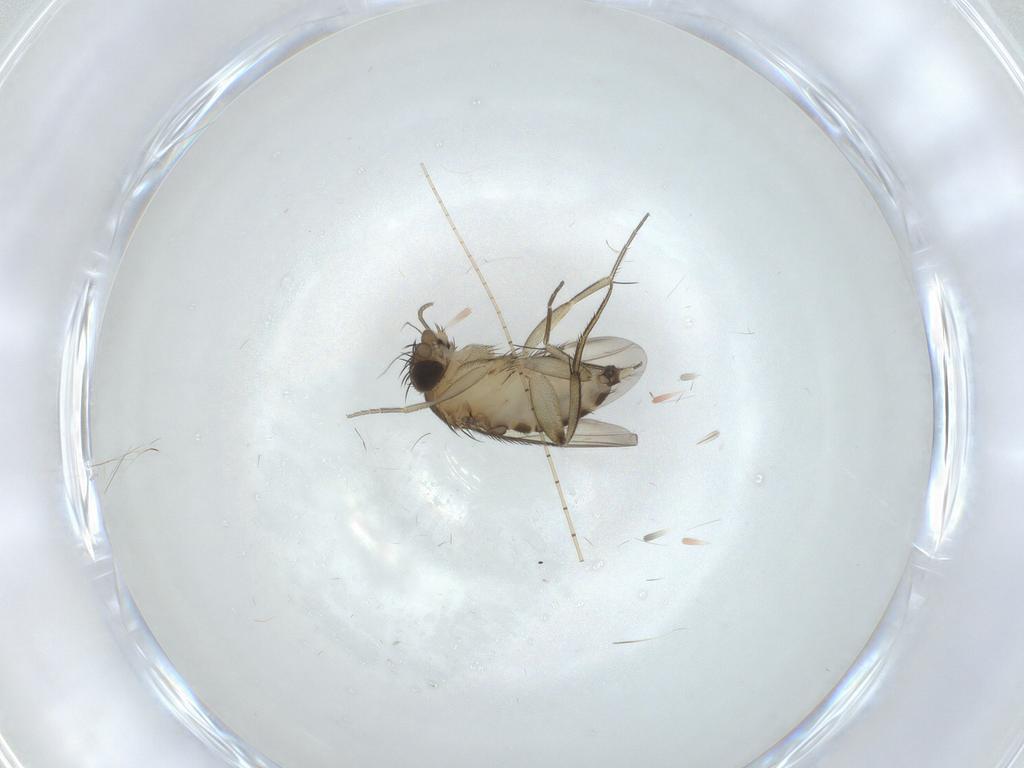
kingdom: Animalia
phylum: Arthropoda
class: Insecta
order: Diptera
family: Phoridae
